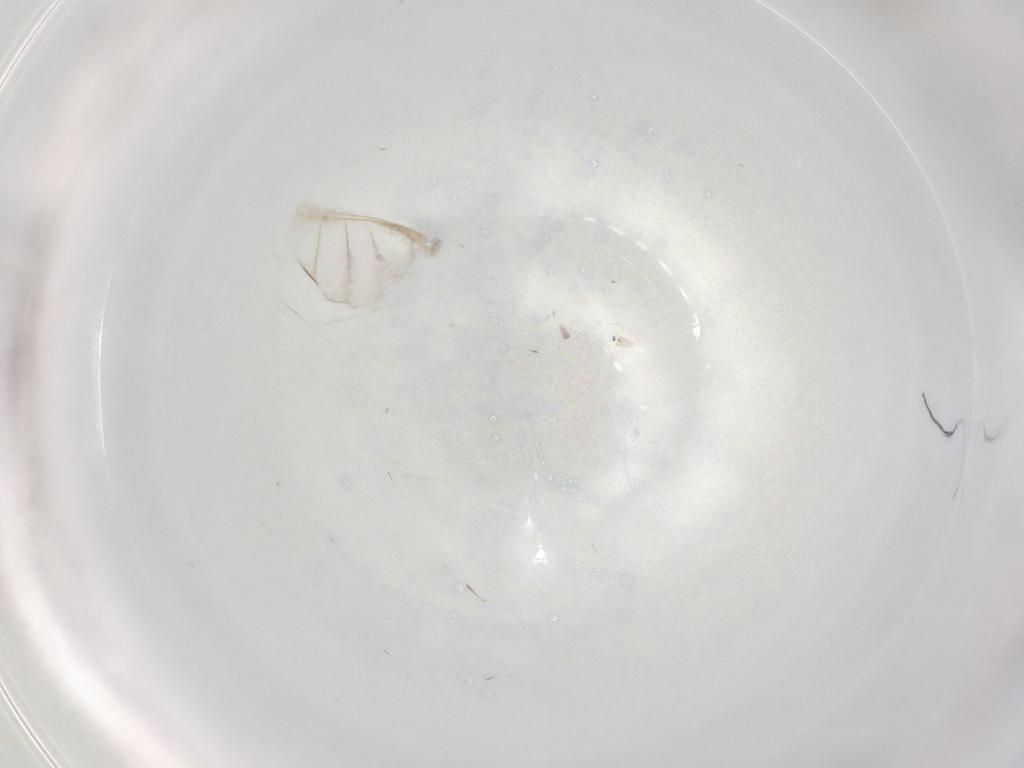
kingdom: Animalia
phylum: Arthropoda
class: Insecta
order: Hymenoptera
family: Mymaridae
